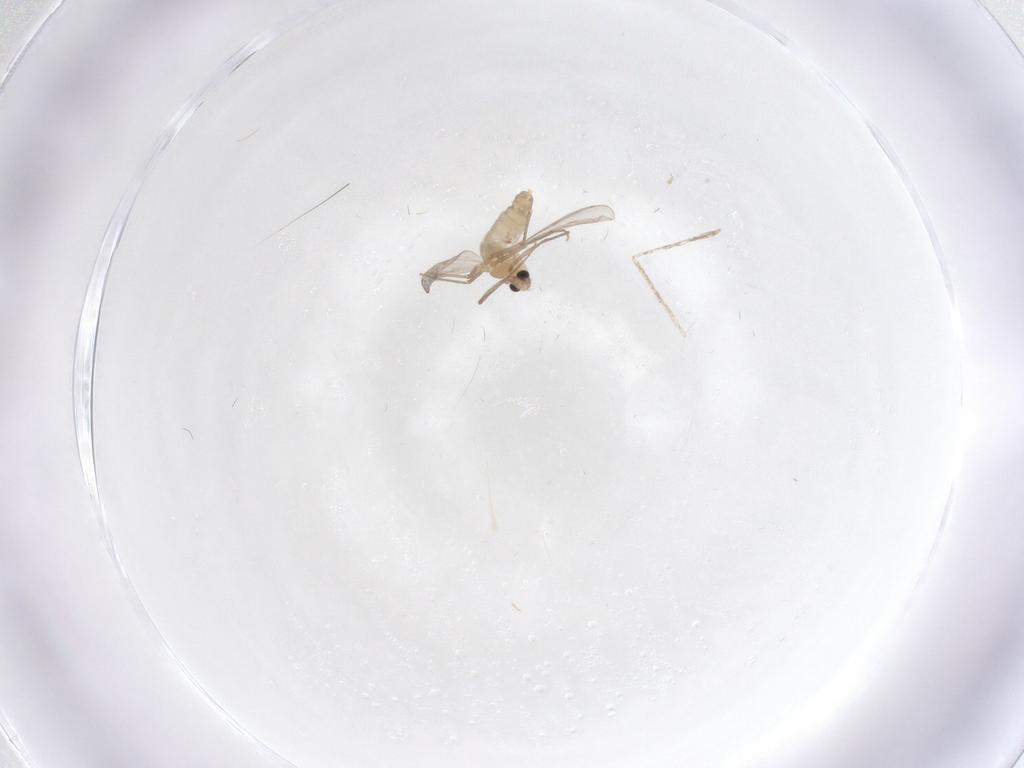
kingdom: Animalia
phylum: Arthropoda
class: Insecta
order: Diptera
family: Chironomidae
